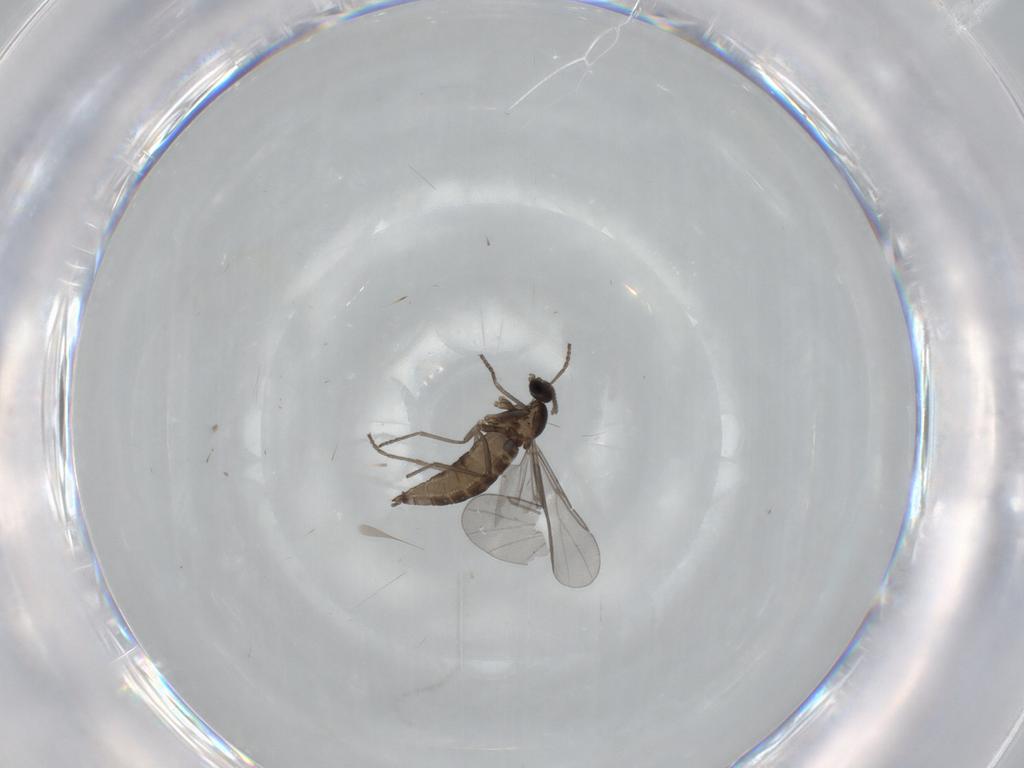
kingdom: Animalia
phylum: Arthropoda
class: Insecta
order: Diptera
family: Cecidomyiidae
